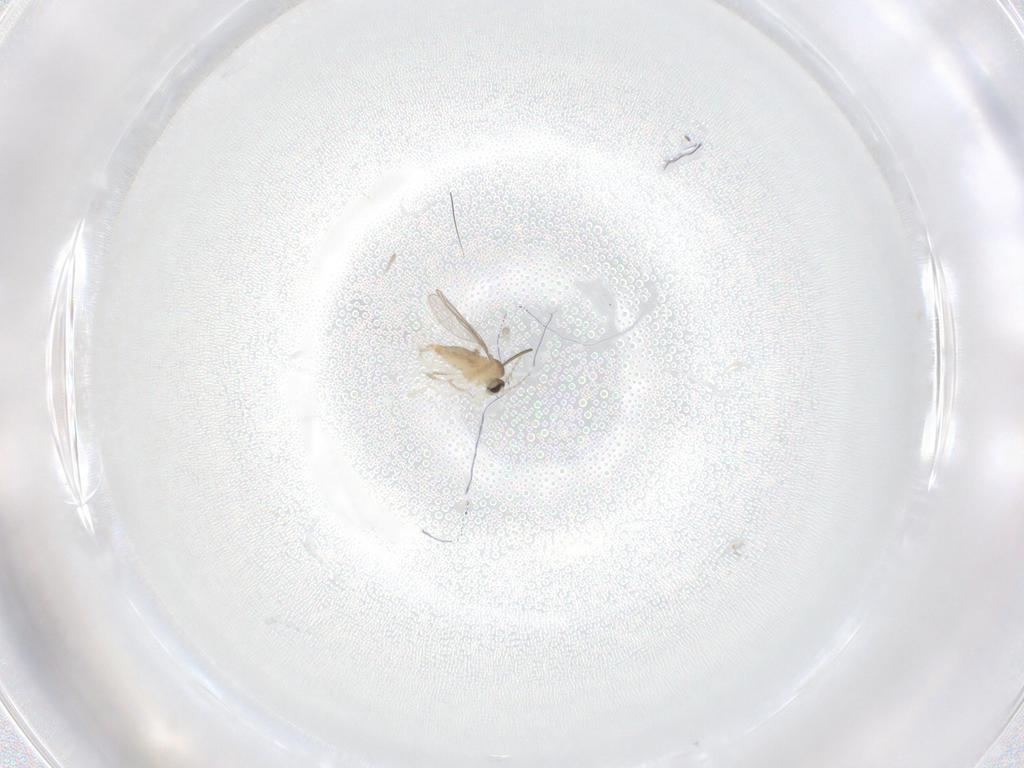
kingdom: Animalia
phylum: Arthropoda
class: Insecta
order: Diptera
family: Cecidomyiidae
